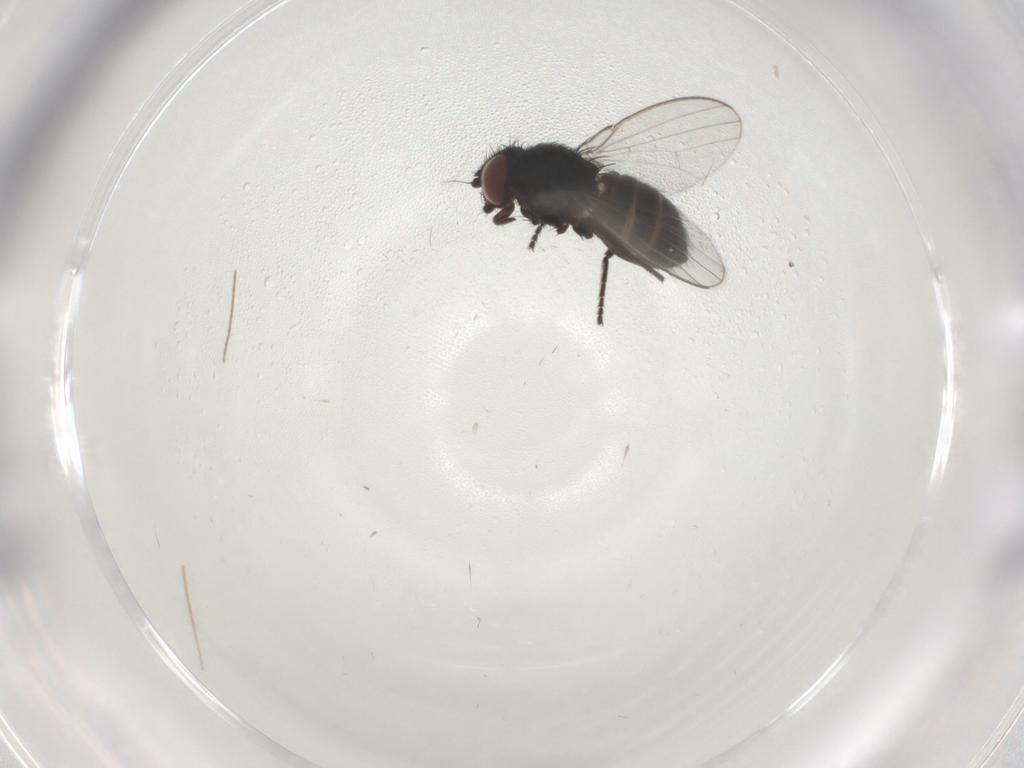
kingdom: Animalia
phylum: Arthropoda
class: Insecta
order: Diptera
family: Milichiidae
